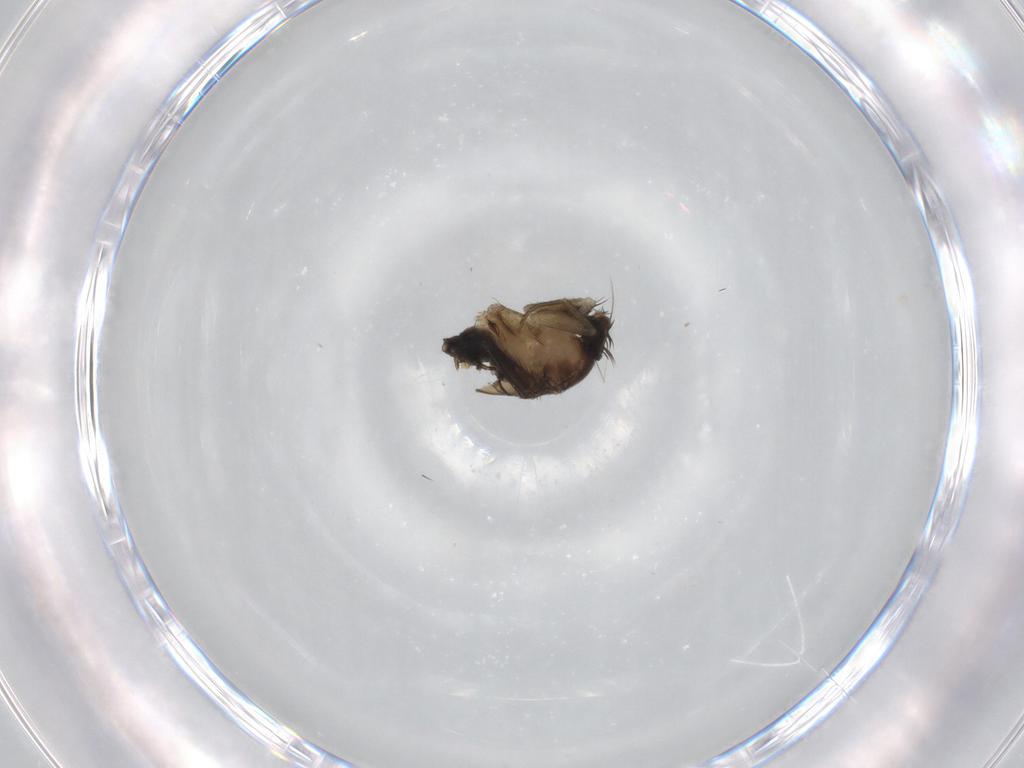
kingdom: Animalia
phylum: Arthropoda
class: Insecta
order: Diptera
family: Phoridae
